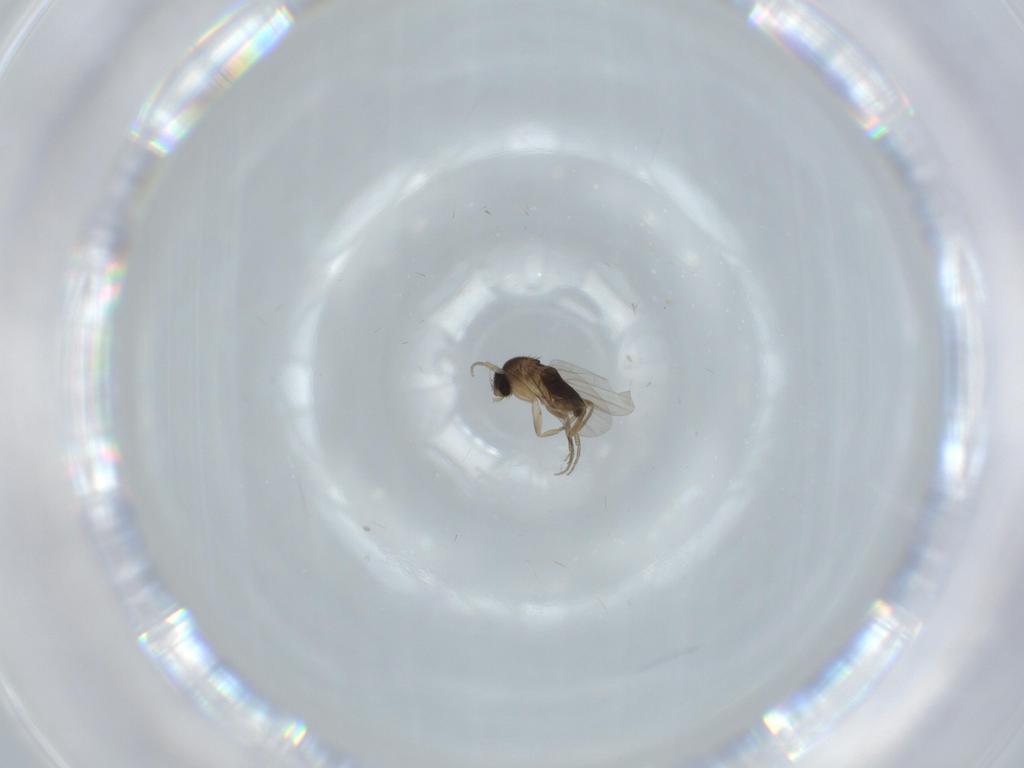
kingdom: Animalia
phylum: Arthropoda
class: Insecta
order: Diptera
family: Phoridae
